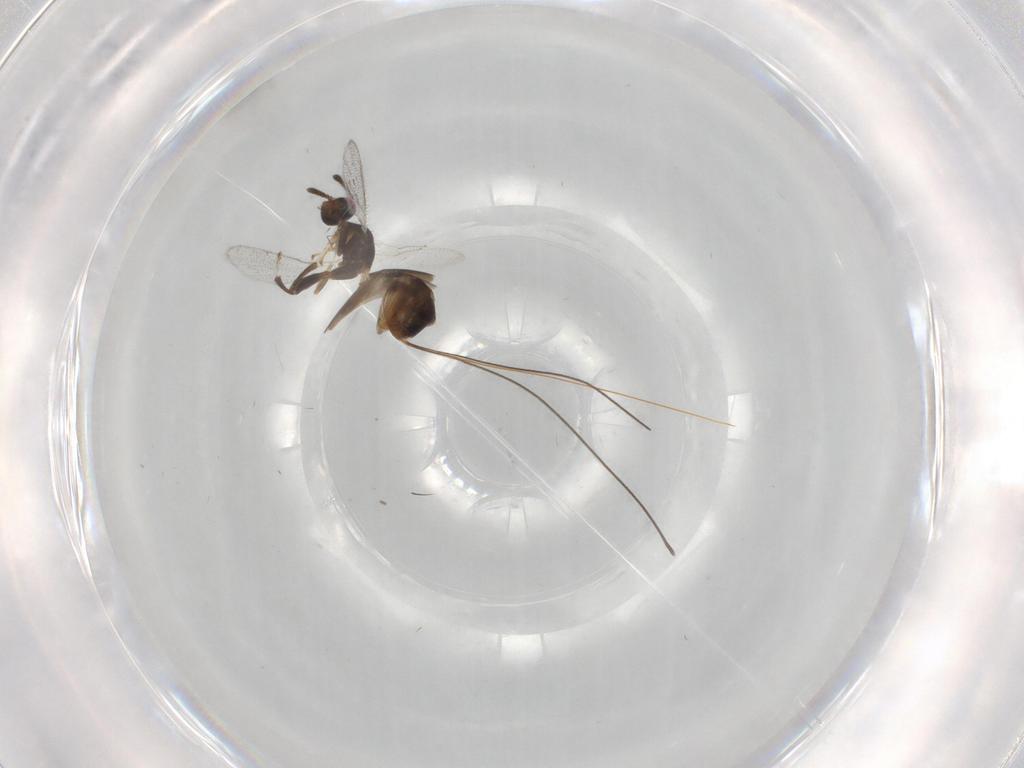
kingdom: Animalia
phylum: Arthropoda
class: Insecta
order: Hymenoptera
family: Torymidae
